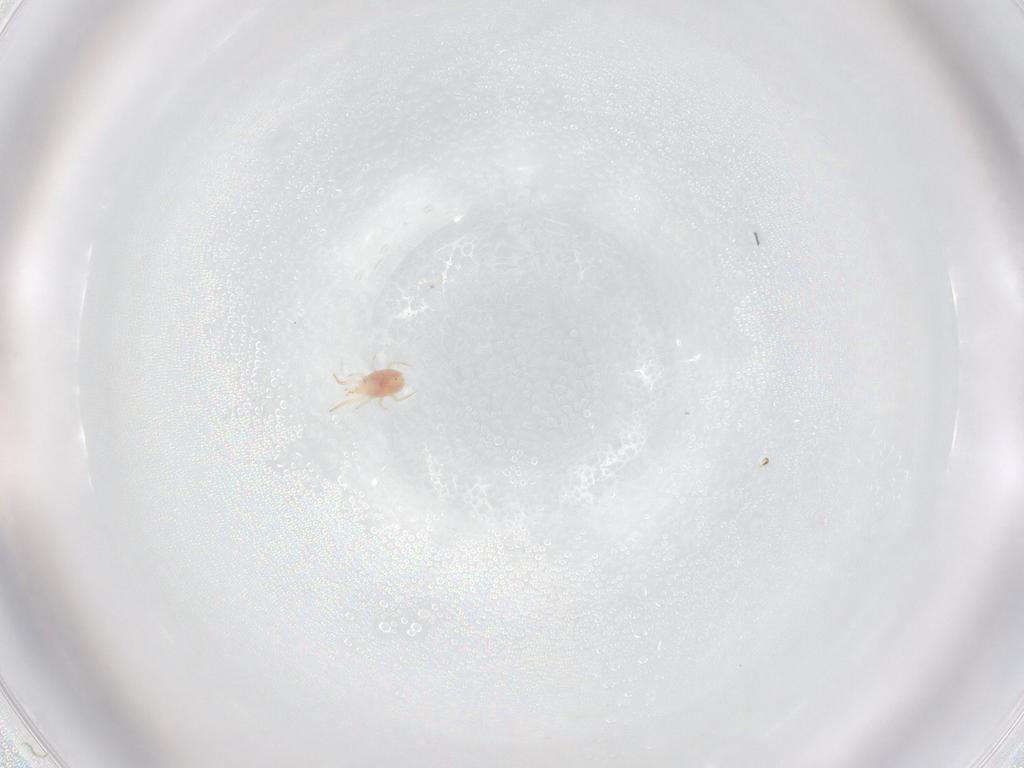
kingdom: Animalia
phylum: Arthropoda
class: Arachnida
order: Mesostigmata
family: Phytoseiidae
